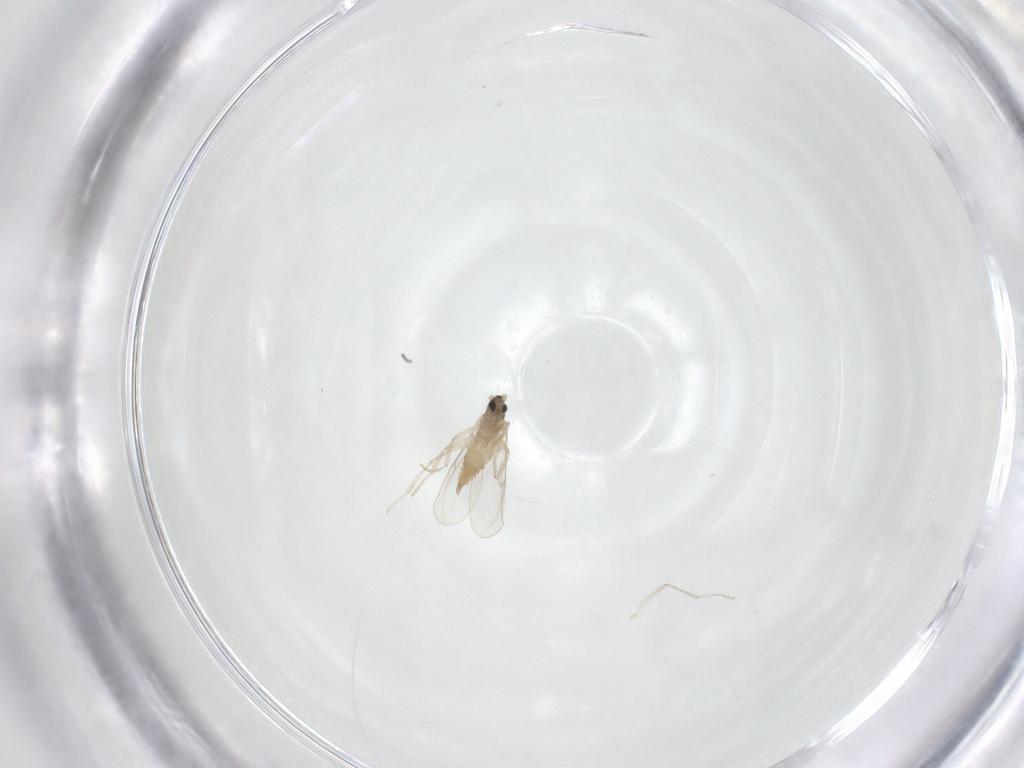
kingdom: Animalia
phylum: Arthropoda
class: Insecta
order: Diptera
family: Cecidomyiidae
